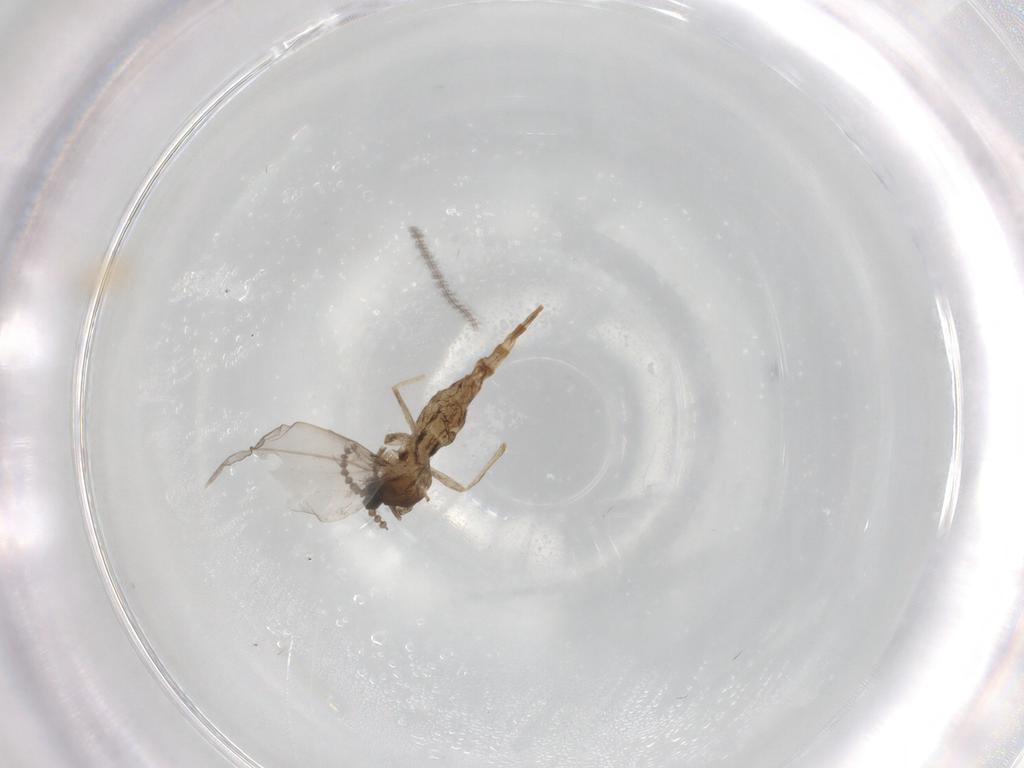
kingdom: Animalia
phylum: Arthropoda
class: Insecta
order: Diptera
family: Cecidomyiidae
